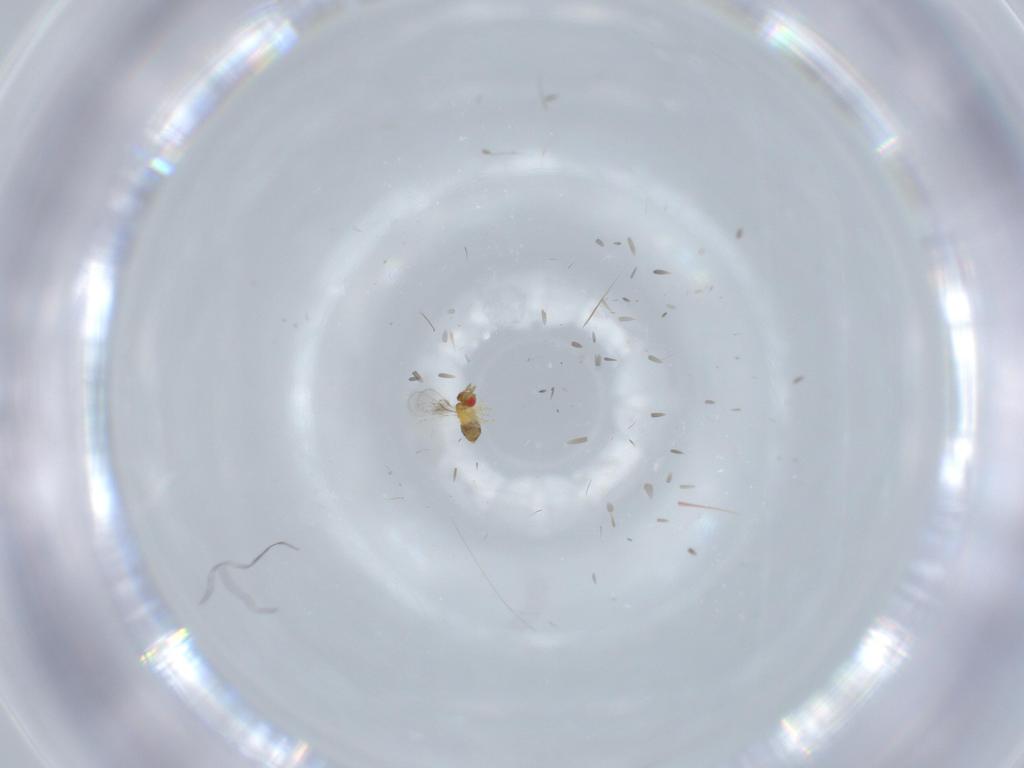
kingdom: Animalia
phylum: Arthropoda
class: Insecta
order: Hymenoptera
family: Trichogrammatidae
